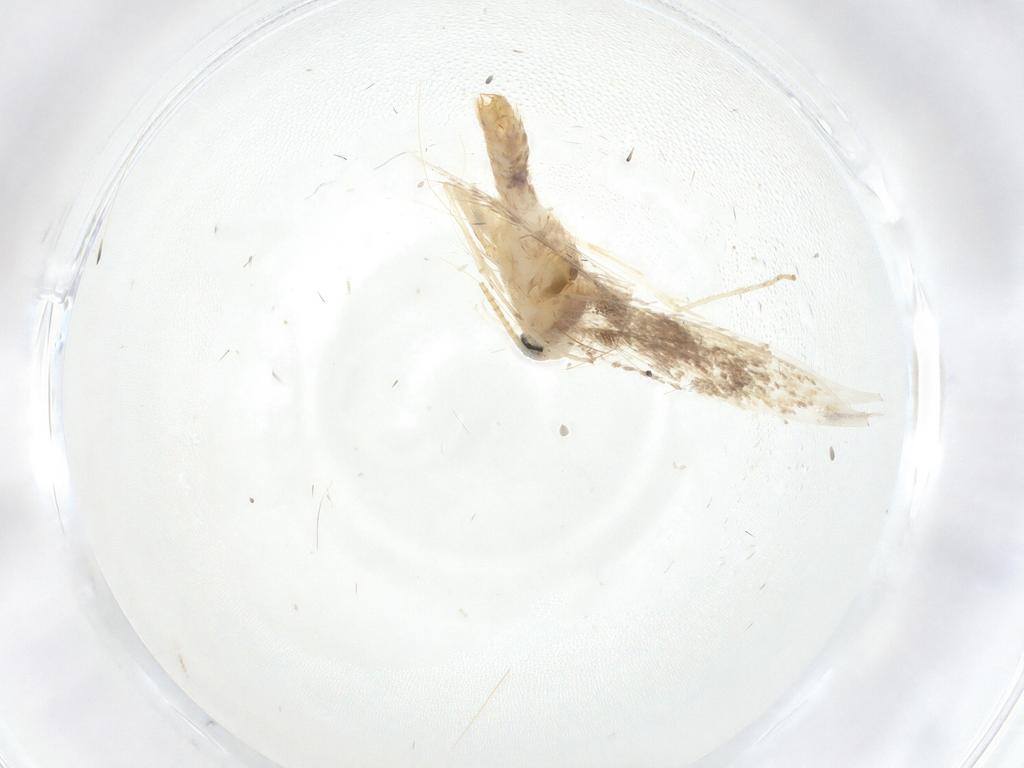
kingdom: Animalia
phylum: Arthropoda
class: Insecta
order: Lepidoptera
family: Gracillariidae
